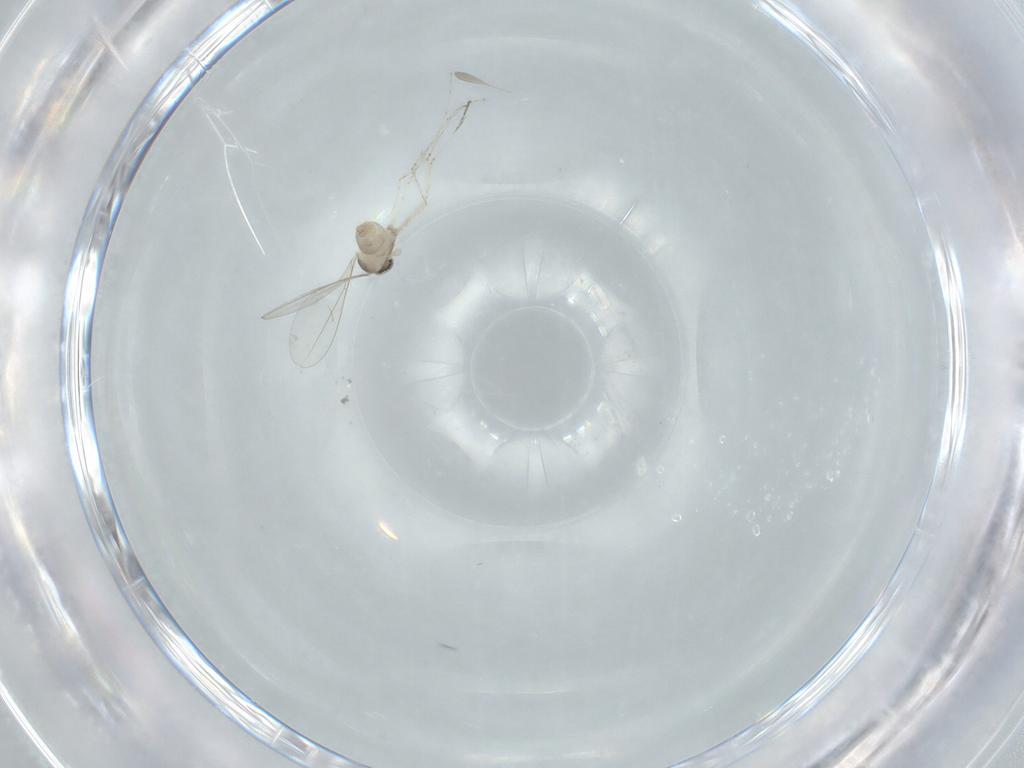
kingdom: Animalia
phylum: Arthropoda
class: Insecta
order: Diptera
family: Cecidomyiidae
